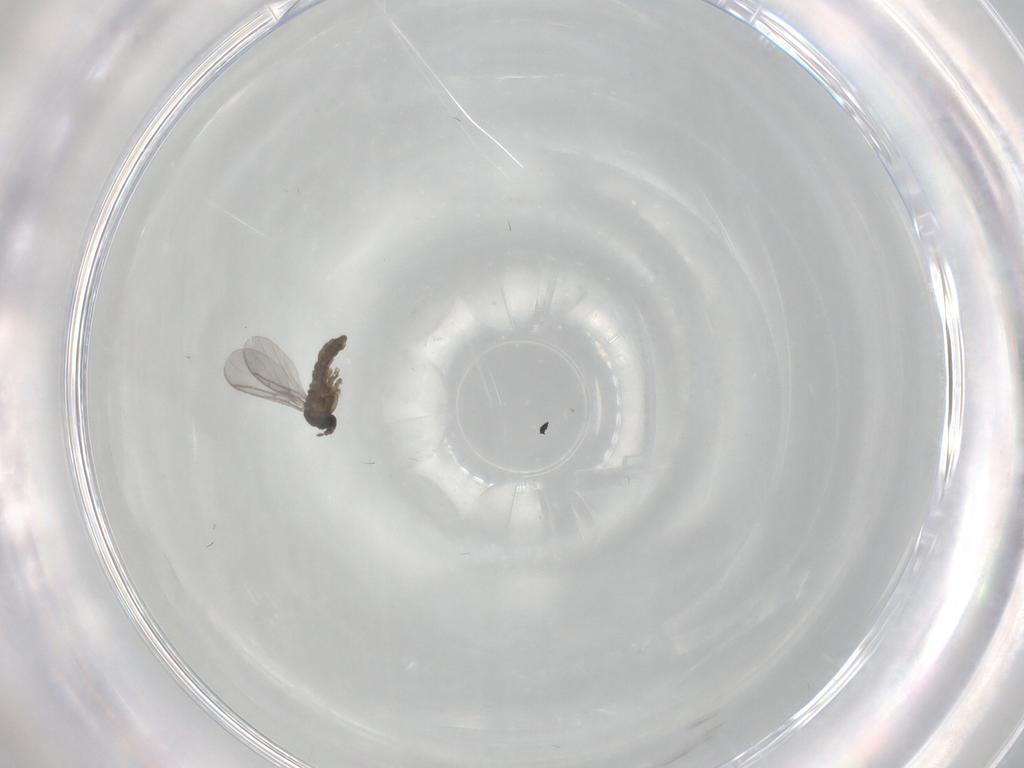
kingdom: Animalia
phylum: Arthropoda
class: Insecta
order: Diptera
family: Sciaridae
